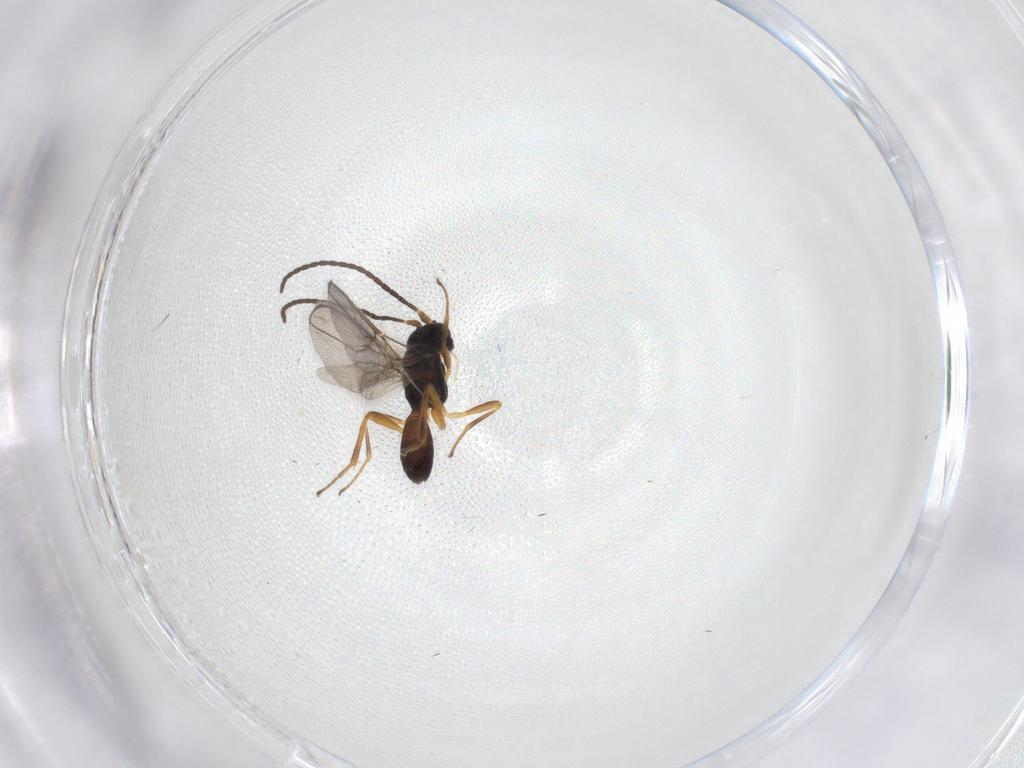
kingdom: Animalia
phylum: Arthropoda
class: Insecta
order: Hymenoptera
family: Braconidae
